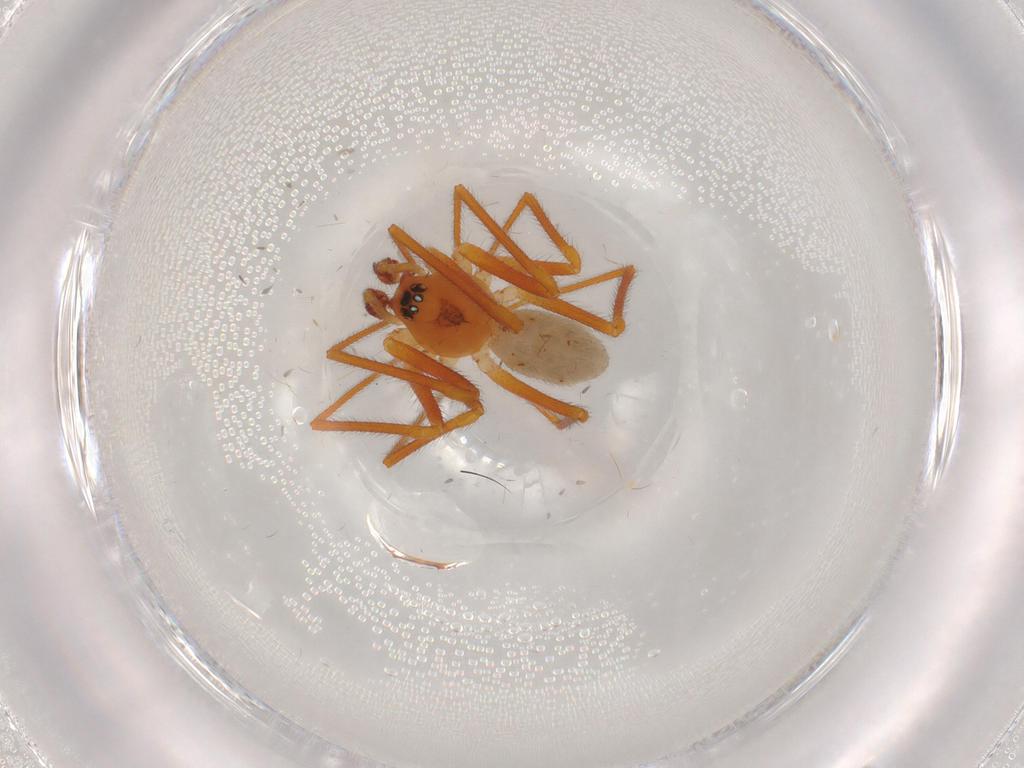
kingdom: Animalia
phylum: Arthropoda
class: Arachnida
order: Araneae
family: Linyphiidae
